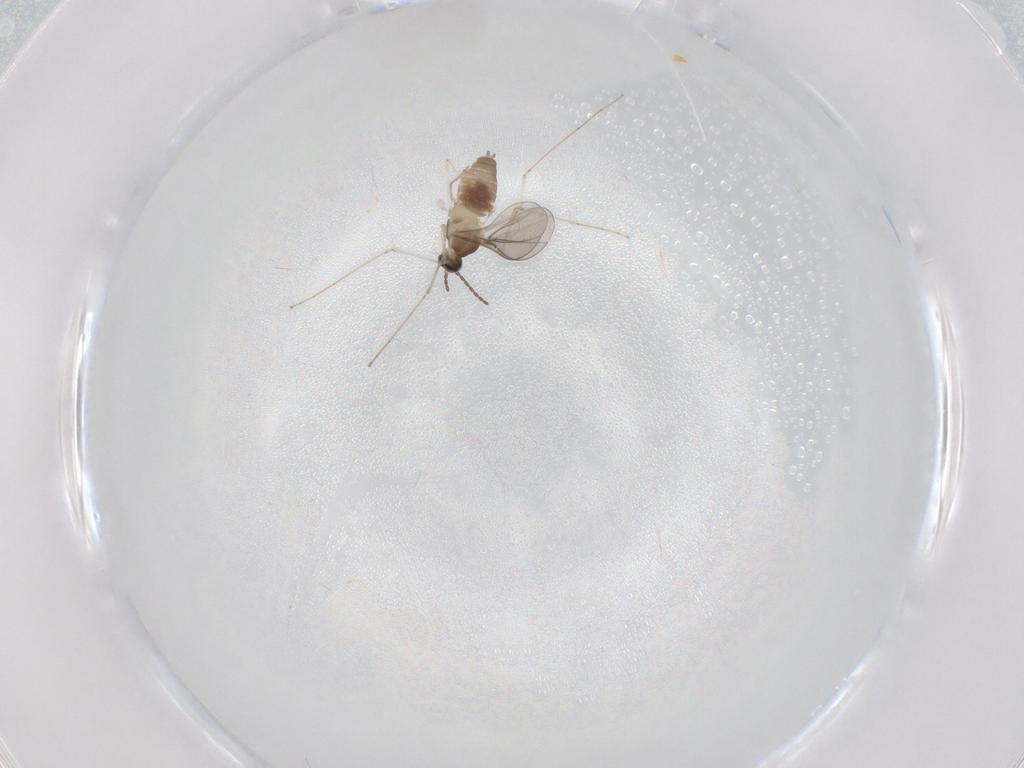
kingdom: Animalia
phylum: Arthropoda
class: Insecta
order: Diptera
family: Cecidomyiidae
